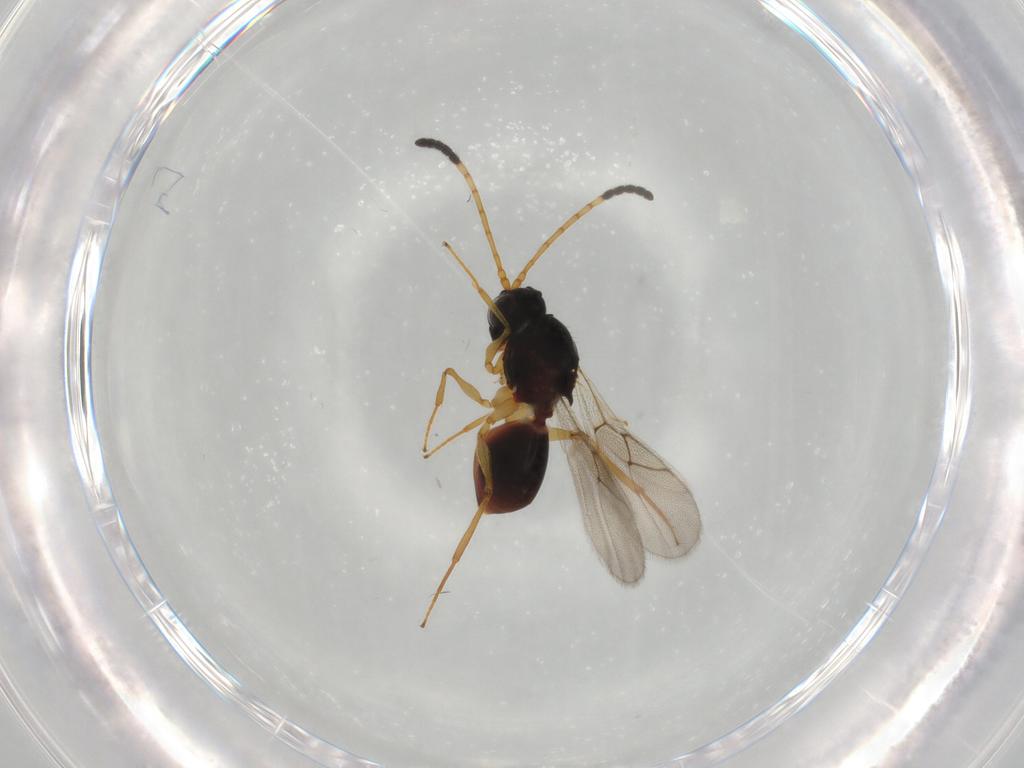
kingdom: Animalia
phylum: Arthropoda
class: Insecta
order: Hymenoptera
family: Figitidae
